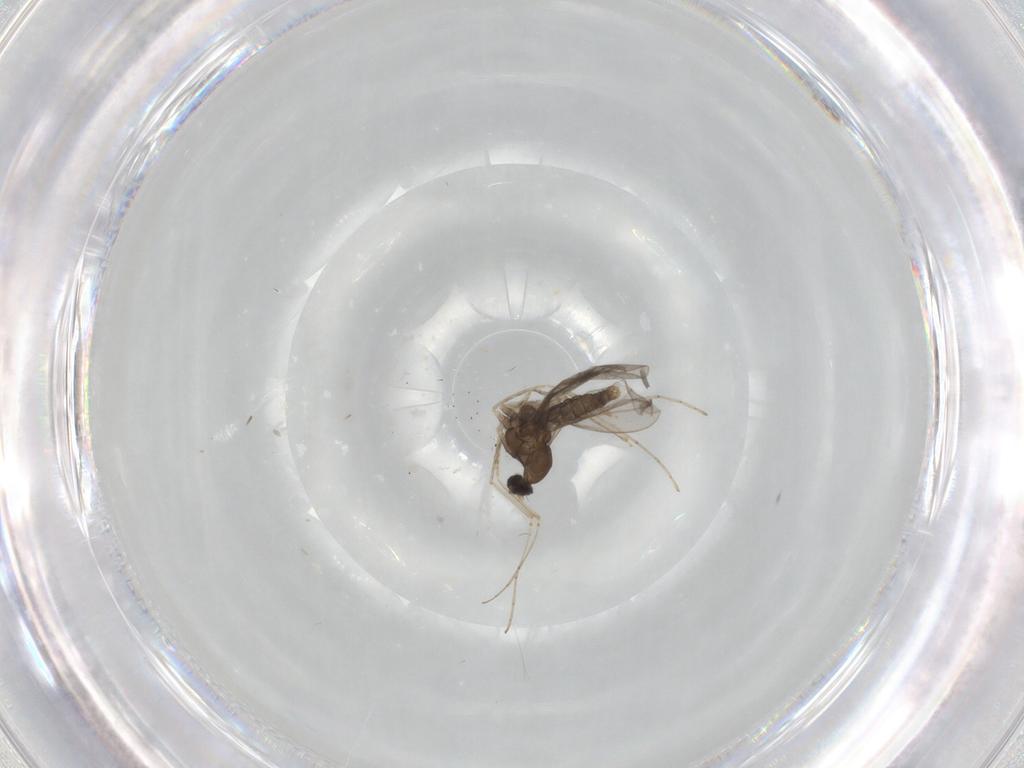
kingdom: Animalia
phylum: Arthropoda
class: Insecta
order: Diptera
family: Cecidomyiidae
